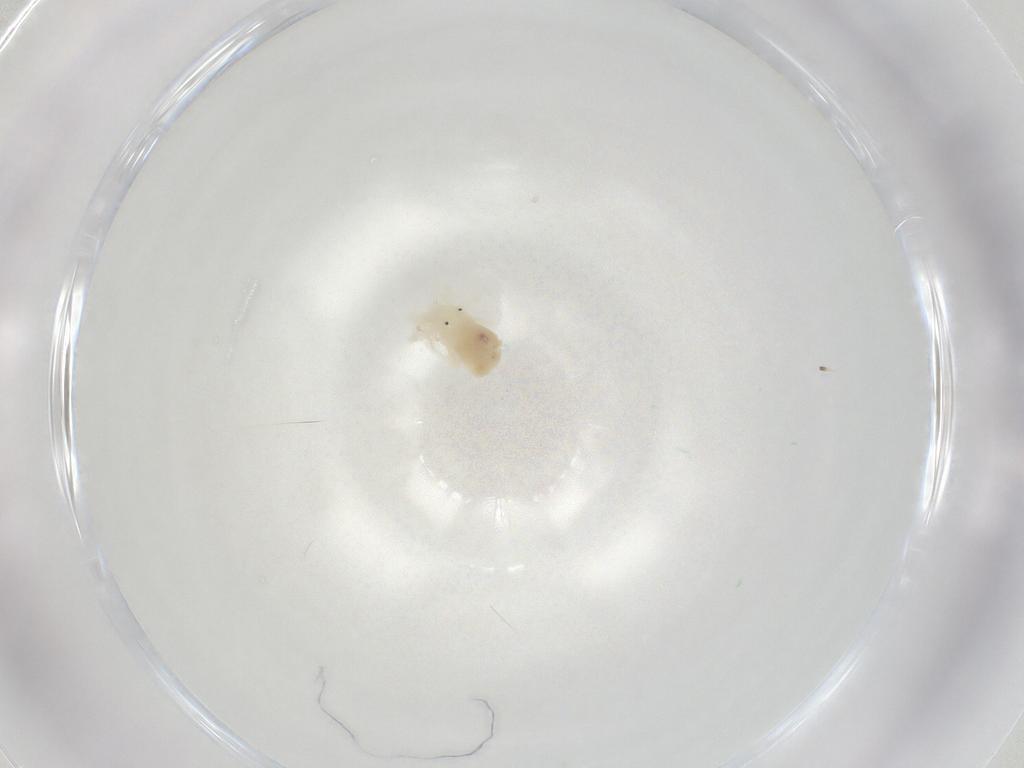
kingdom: Animalia
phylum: Arthropoda
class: Arachnida
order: Trombidiformes
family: Anystidae
